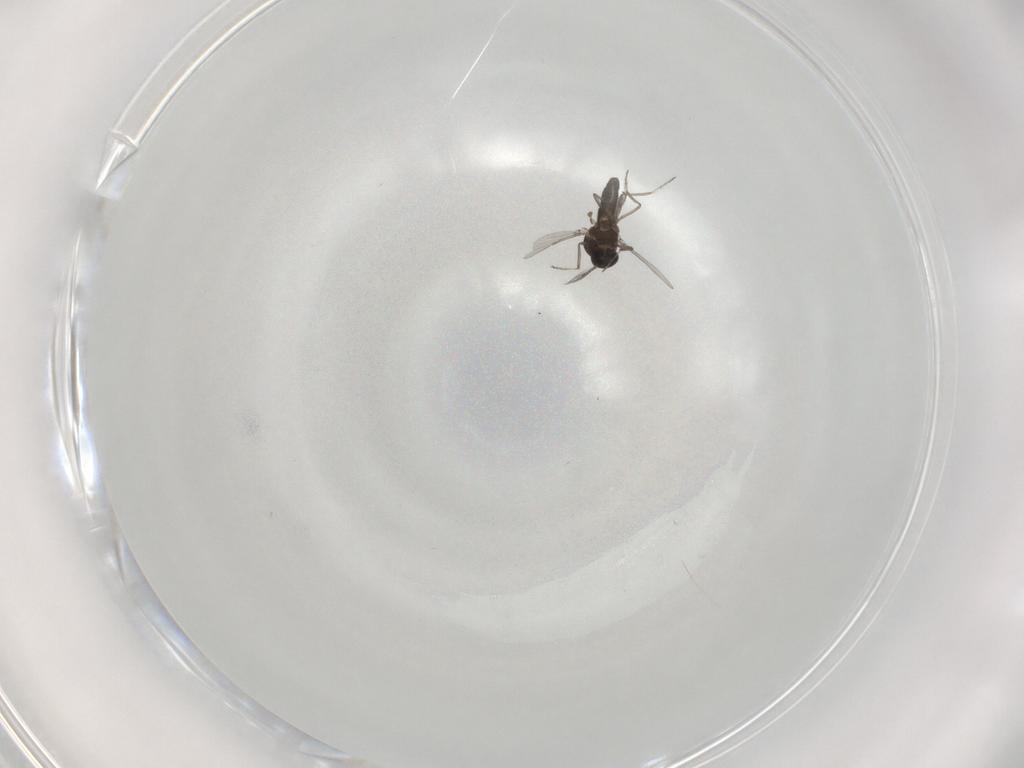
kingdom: Animalia
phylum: Arthropoda
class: Insecta
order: Diptera
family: Ceratopogonidae
